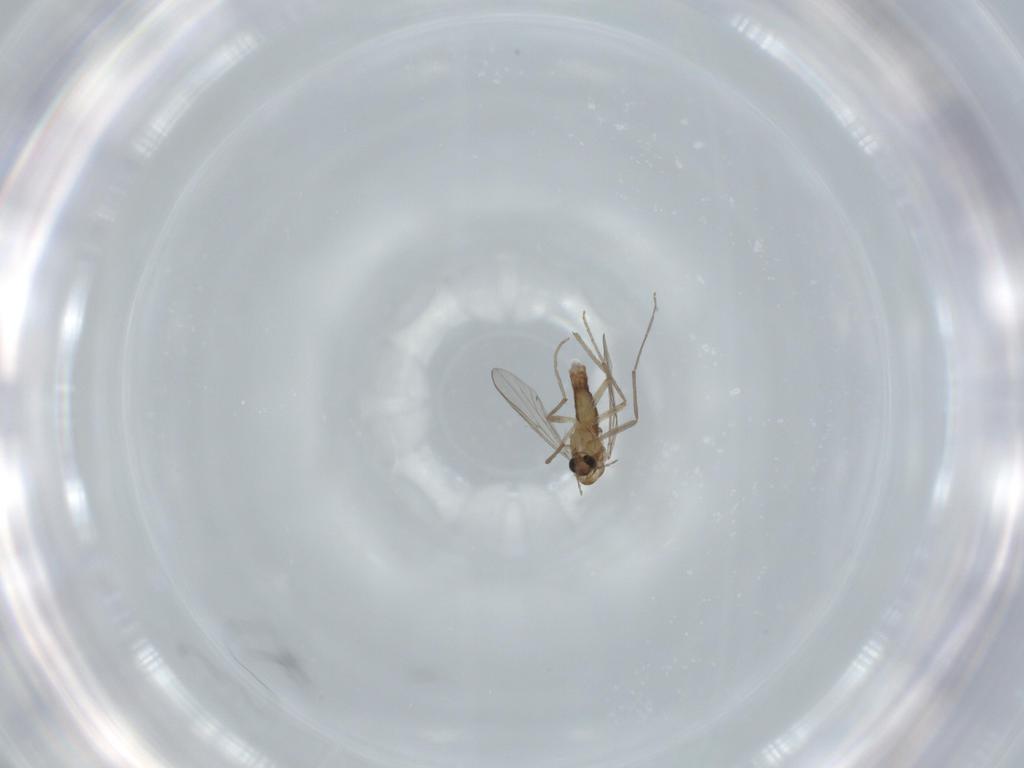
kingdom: Animalia
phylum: Arthropoda
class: Insecta
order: Diptera
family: Chironomidae
